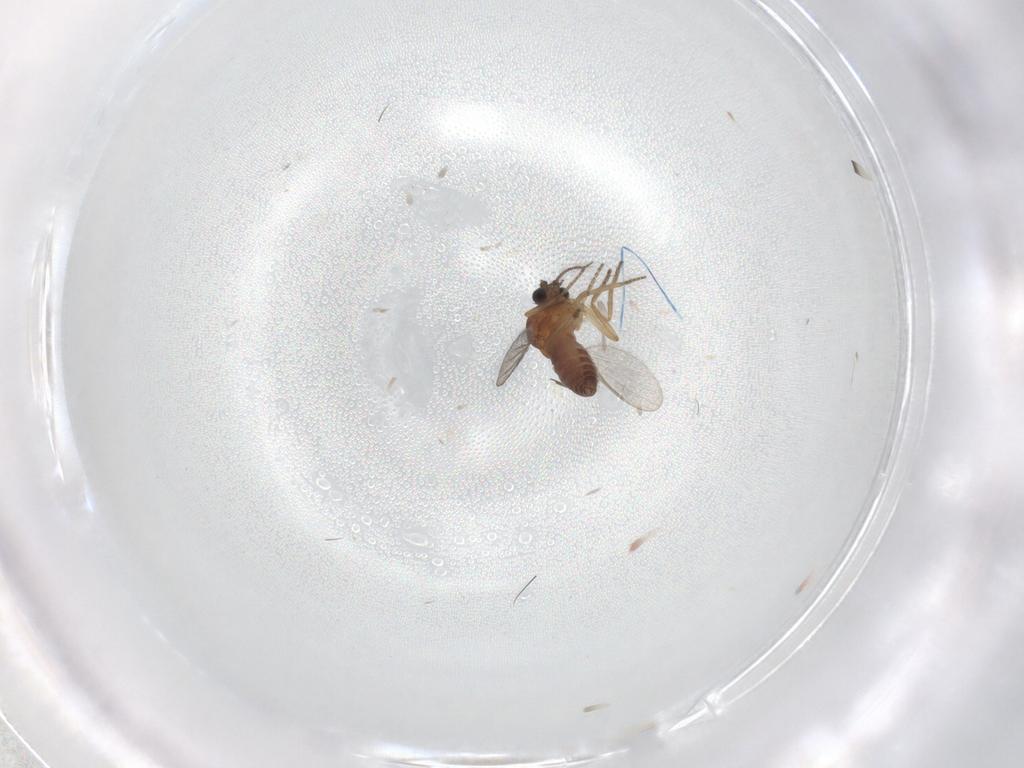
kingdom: Animalia
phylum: Arthropoda
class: Insecta
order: Diptera
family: Ceratopogonidae
